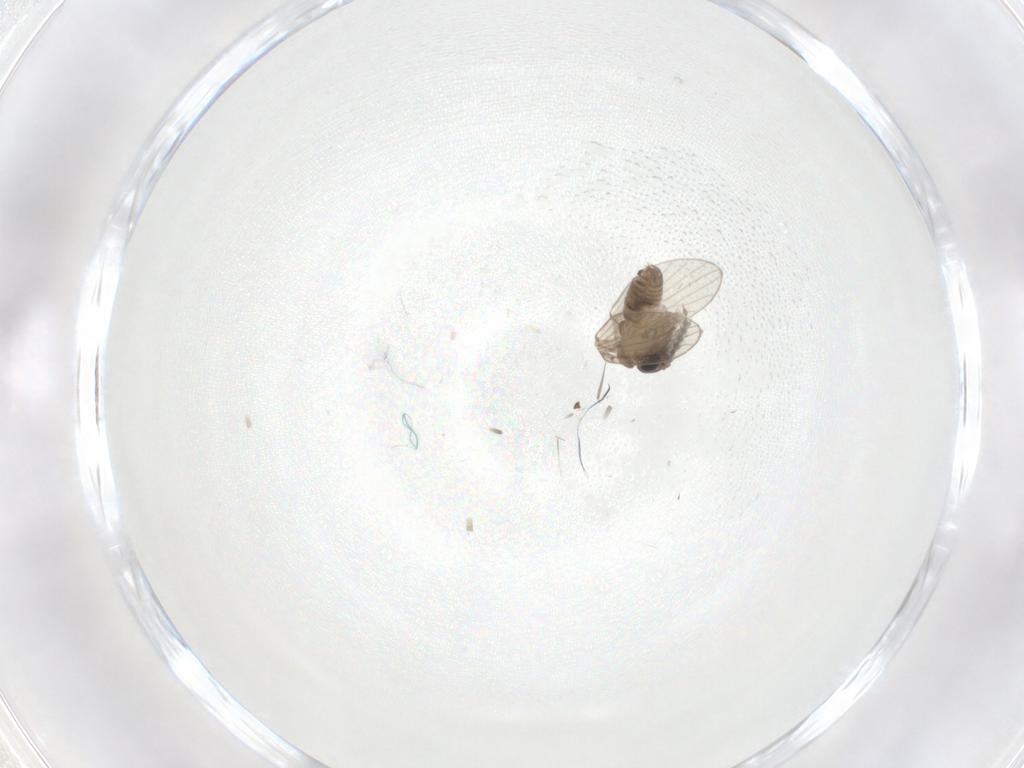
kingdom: Animalia
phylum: Arthropoda
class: Insecta
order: Diptera
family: Psychodidae
